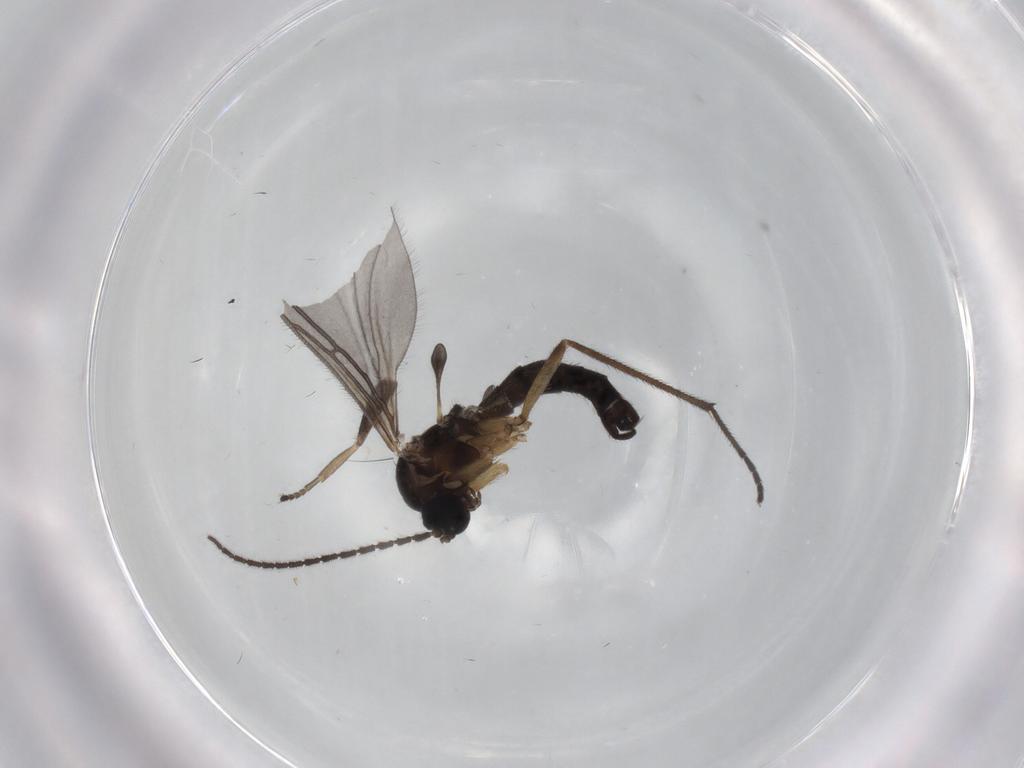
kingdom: Animalia
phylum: Arthropoda
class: Insecta
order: Diptera
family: Sciaridae
